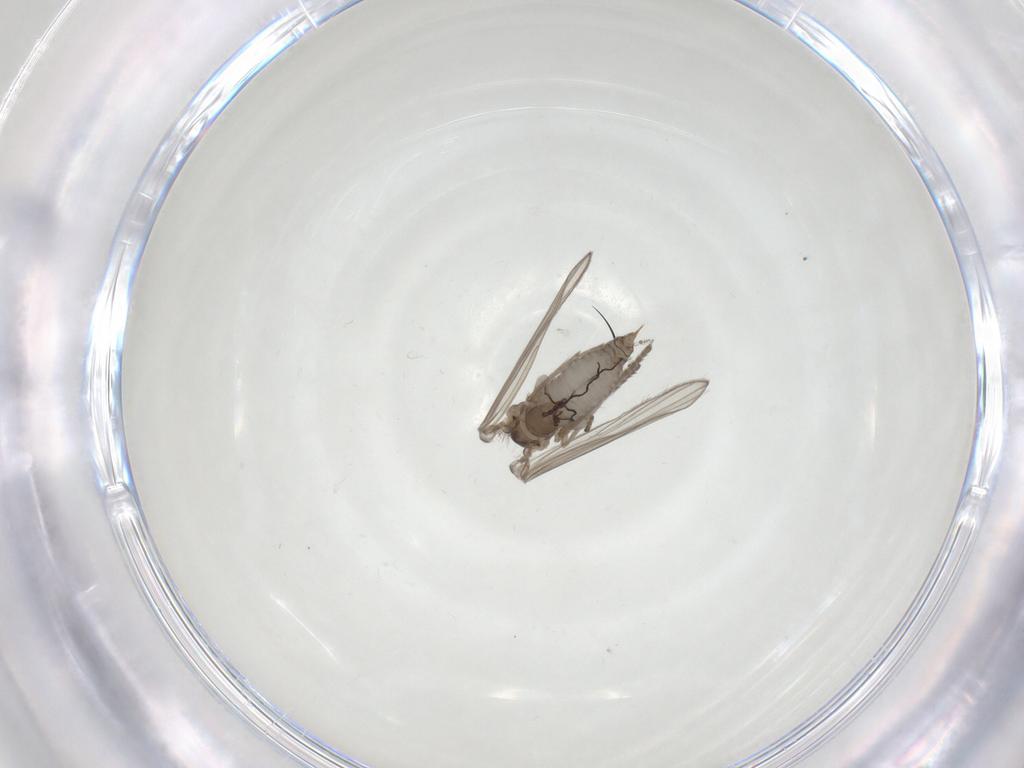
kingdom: Animalia
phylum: Arthropoda
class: Insecta
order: Diptera
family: Psychodidae
